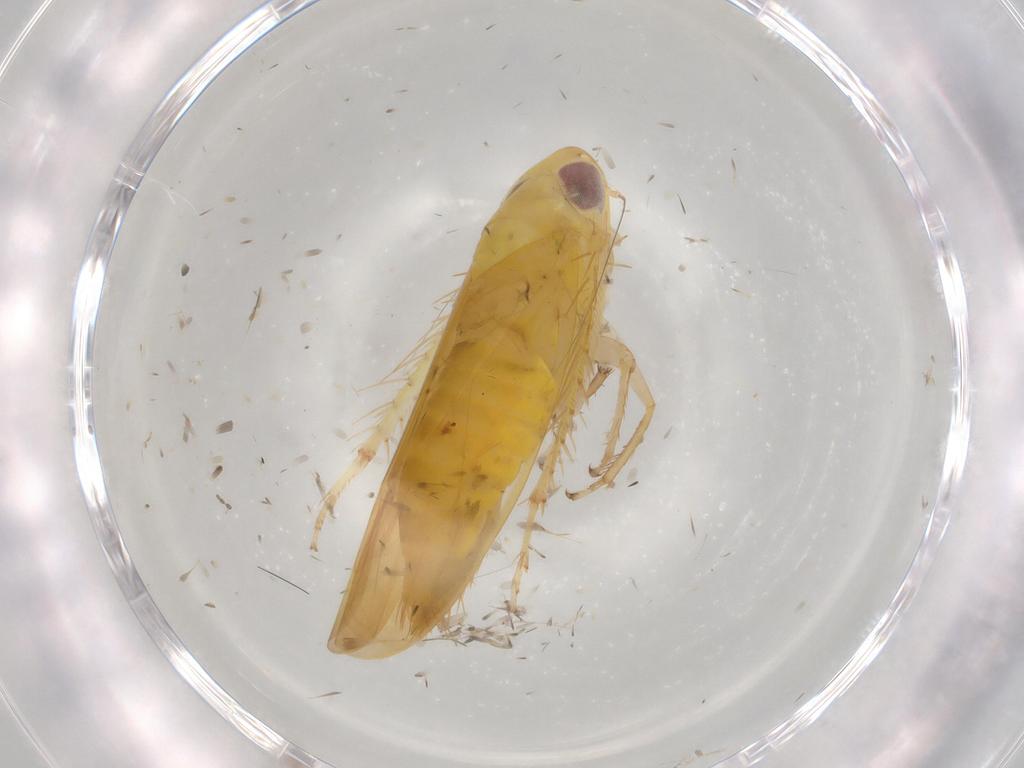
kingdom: Animalia
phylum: Arthropoda
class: Insecta
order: Hemiptera
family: Cicadellidae
